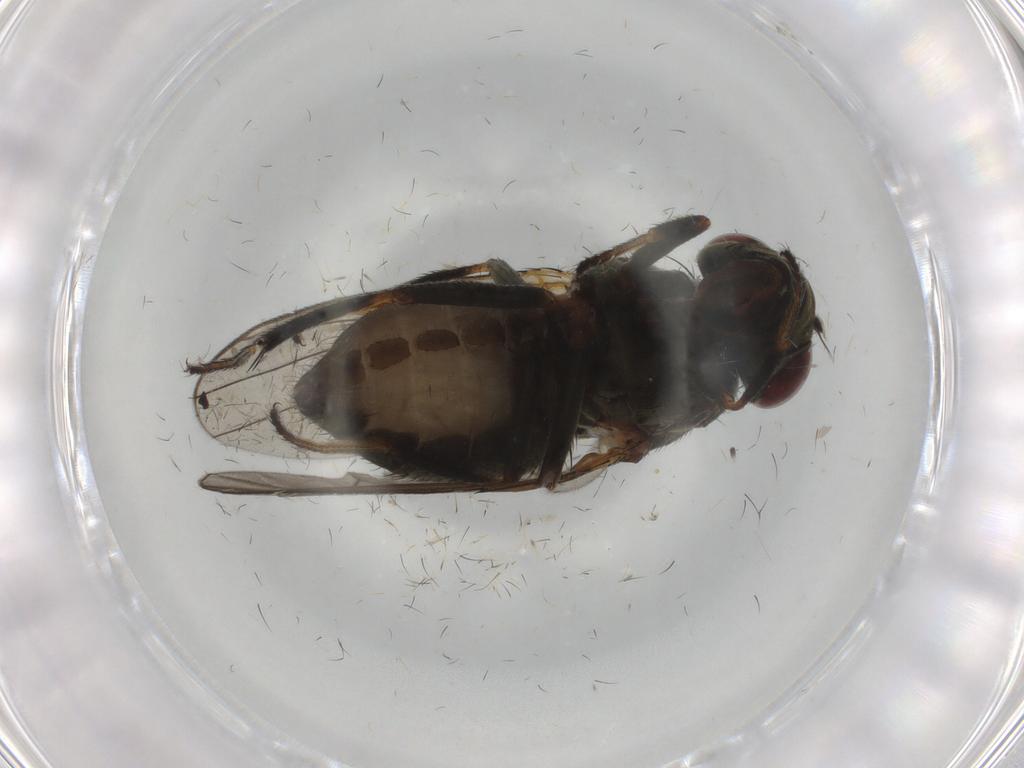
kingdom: Animalia
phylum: Arthropoda
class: Insecta
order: Diptera
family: Ephydridae
